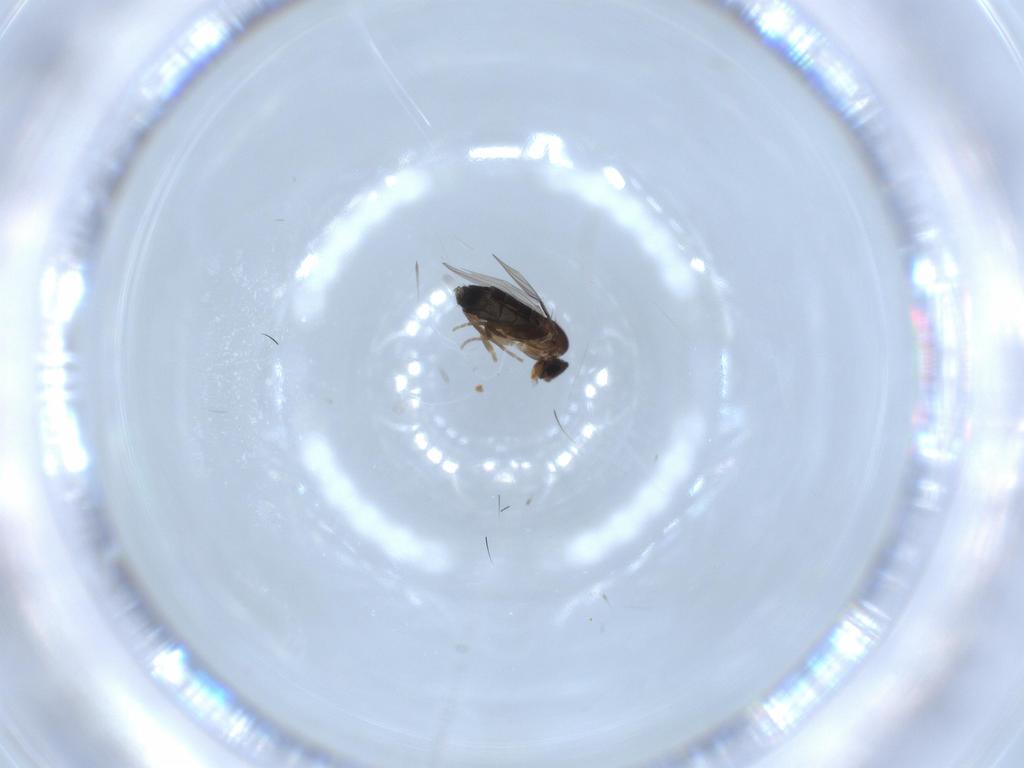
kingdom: Animalia
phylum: Arthropoda
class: Insecta
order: Diptera
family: Phoridae
